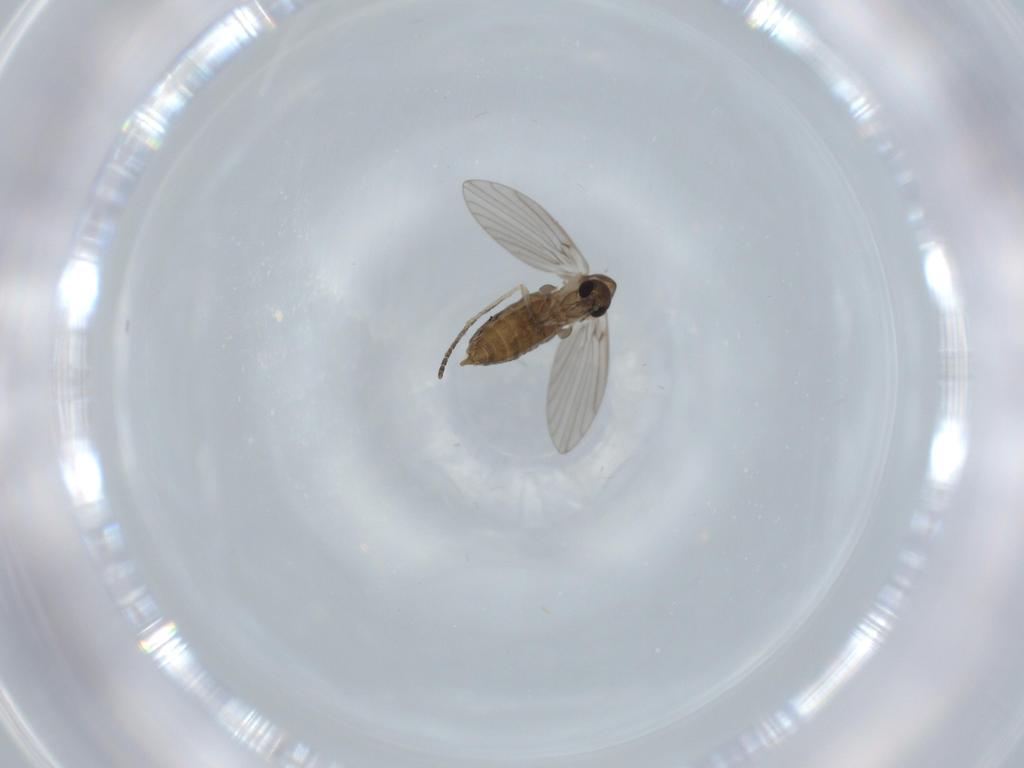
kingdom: Animalia
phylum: Arthropoda
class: Insecta
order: Diptera
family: Psychodidae
